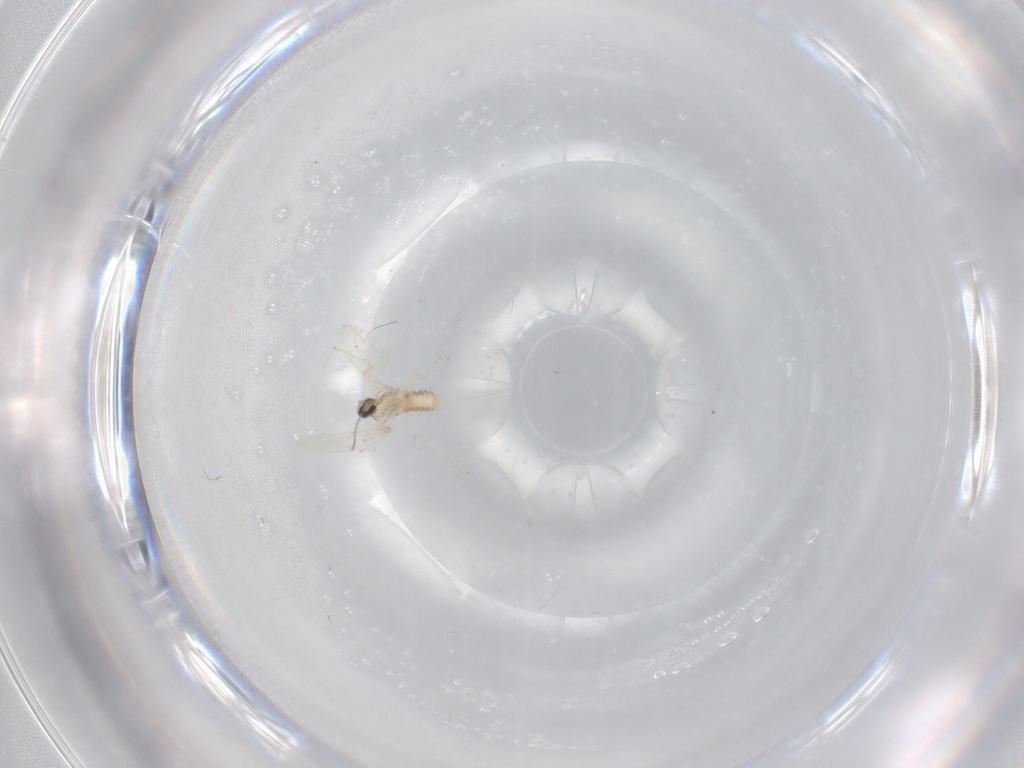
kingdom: Animalia
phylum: Arthropoda
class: Insecta
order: Diptera
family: Cecidomyiidae
